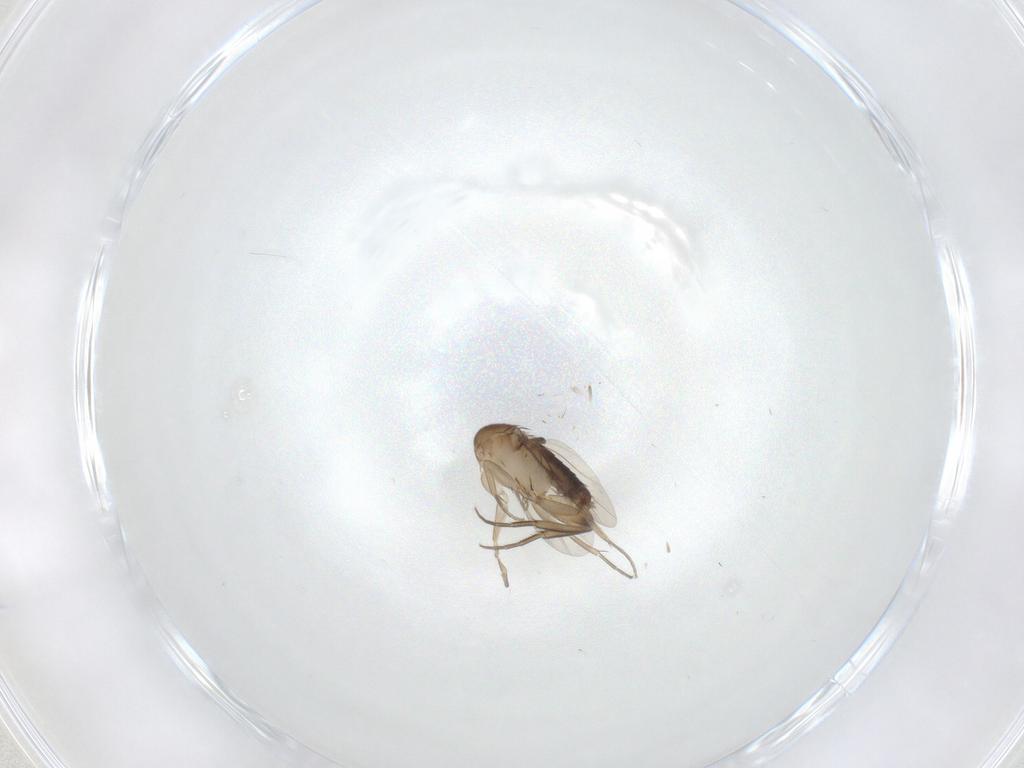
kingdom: Animalia
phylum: Arthropoda
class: Insecta
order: Diptera
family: Phoridae
